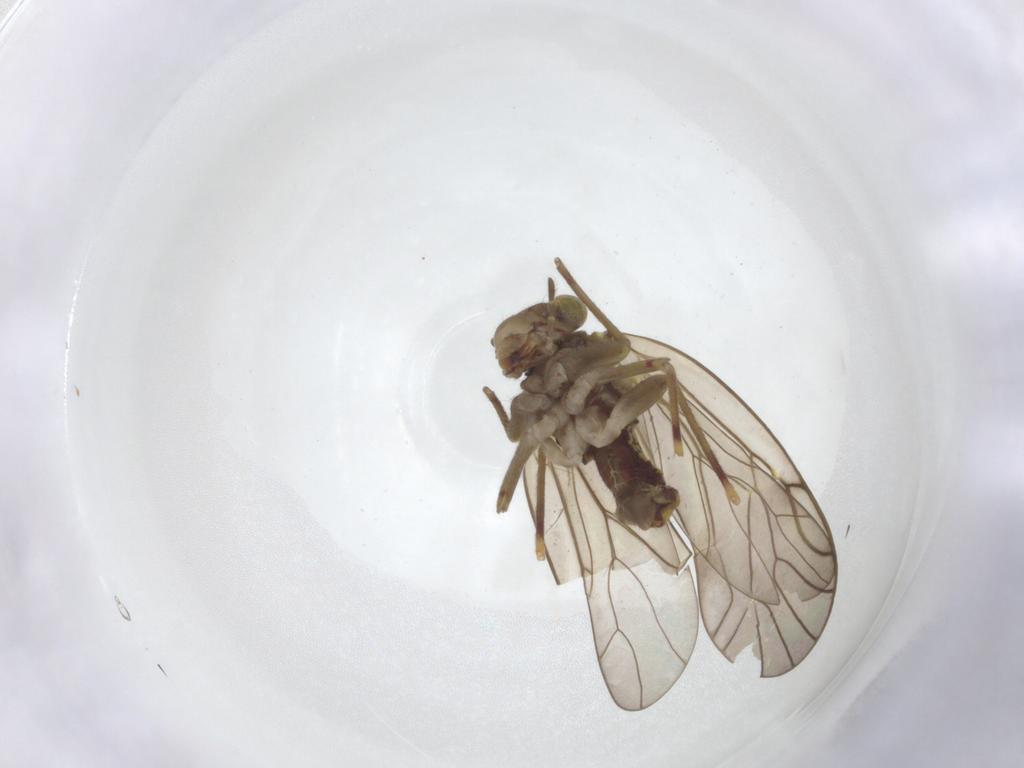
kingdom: Animalia
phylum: Arthropoda
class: Insecta
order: Psocodea
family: Philotarsidae
